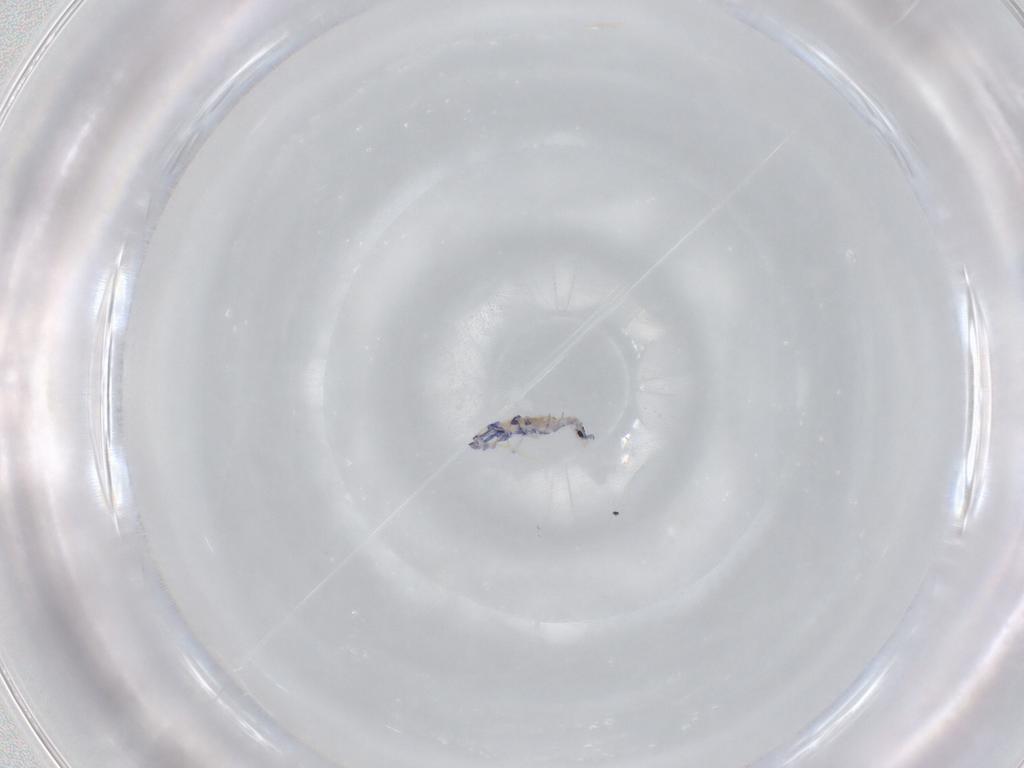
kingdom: Animalia
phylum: Arthropoda
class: Collembola
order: Entomobryomorpha
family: Entomobryidae
